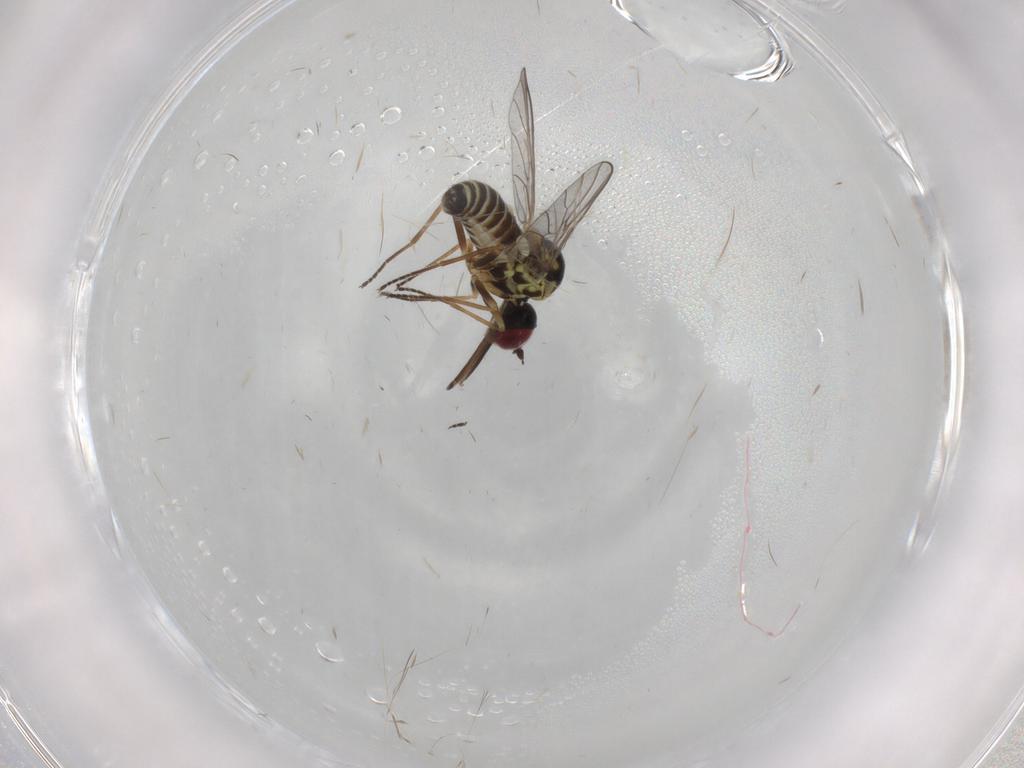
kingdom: Animalia
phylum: Arthropoda
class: Insecta
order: Diptera
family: Bombyliidae
